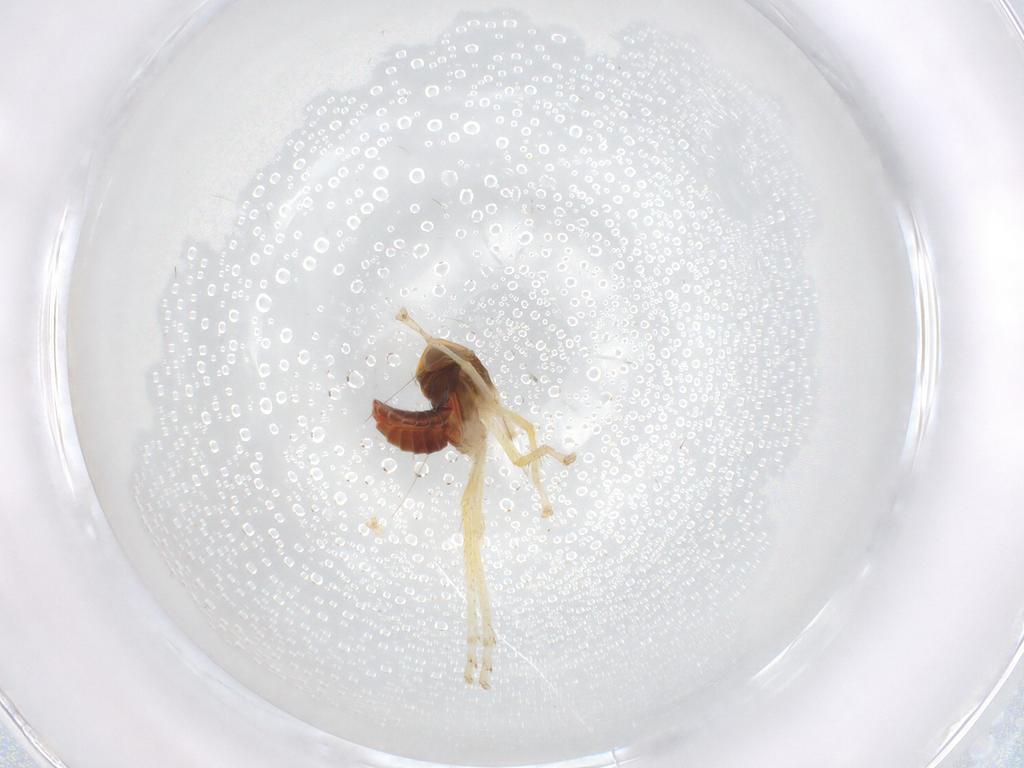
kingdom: Animalia
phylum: Arthropoda
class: Insecta
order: Hemiptera
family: Cicadellidae
